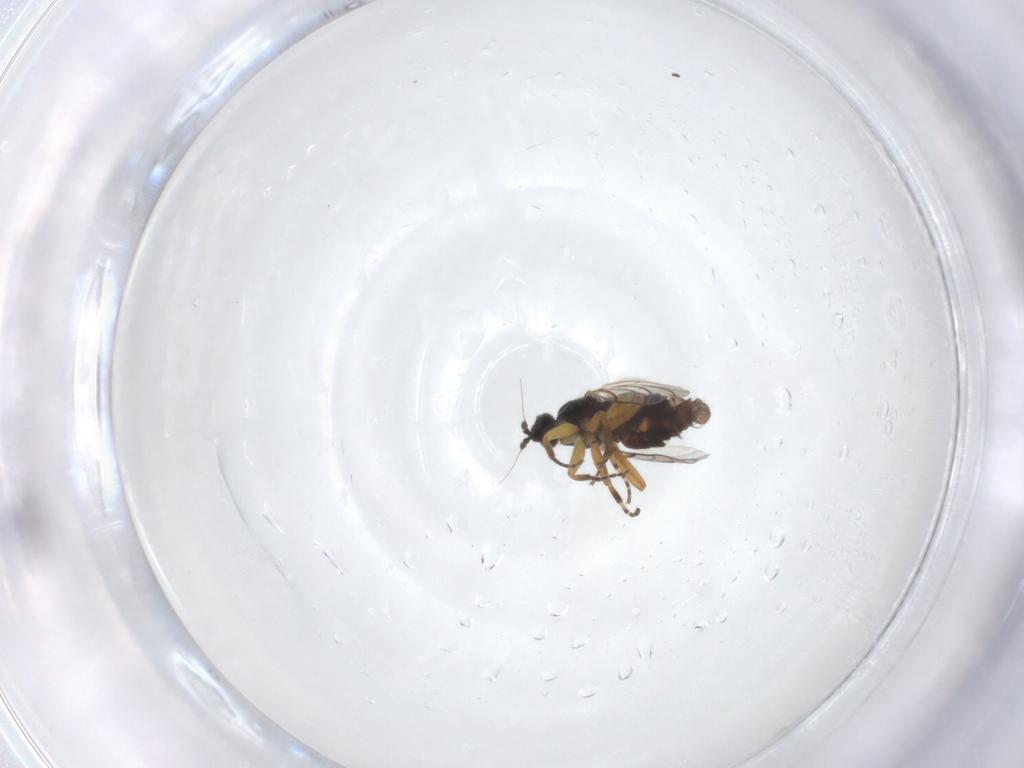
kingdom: Animalia
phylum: Arthropoda
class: Insecta
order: Diptera
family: Hybotidae
